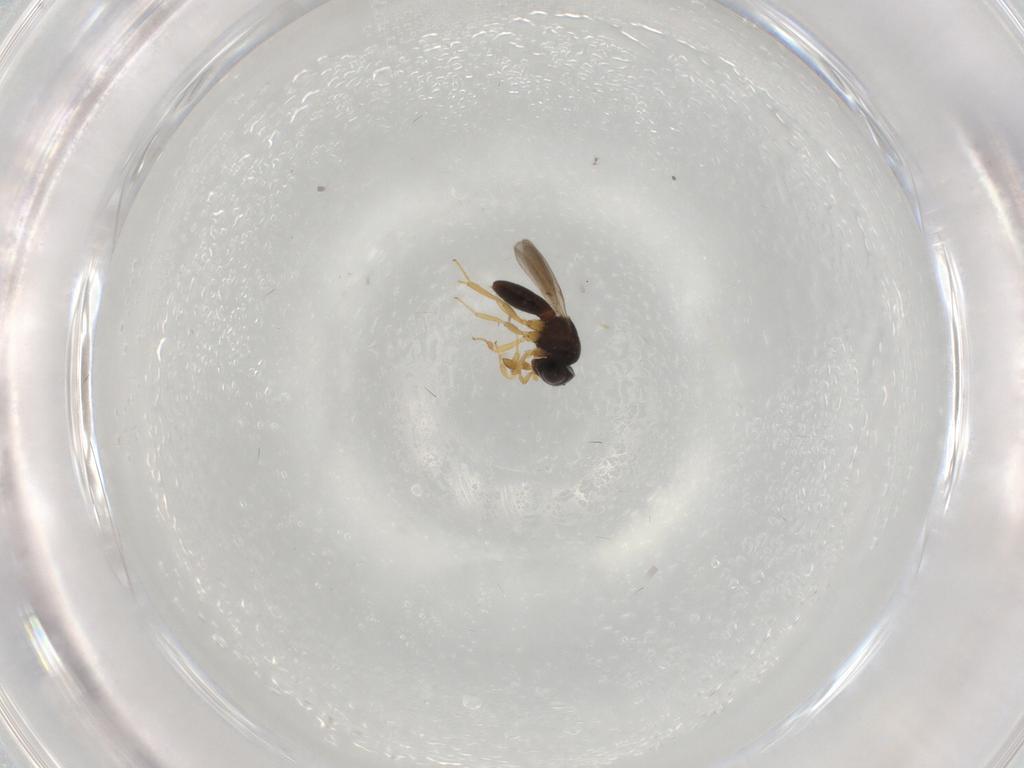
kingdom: Animalia
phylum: Arthropoda
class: Insecta
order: Hymenoptera
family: Scelionidae
